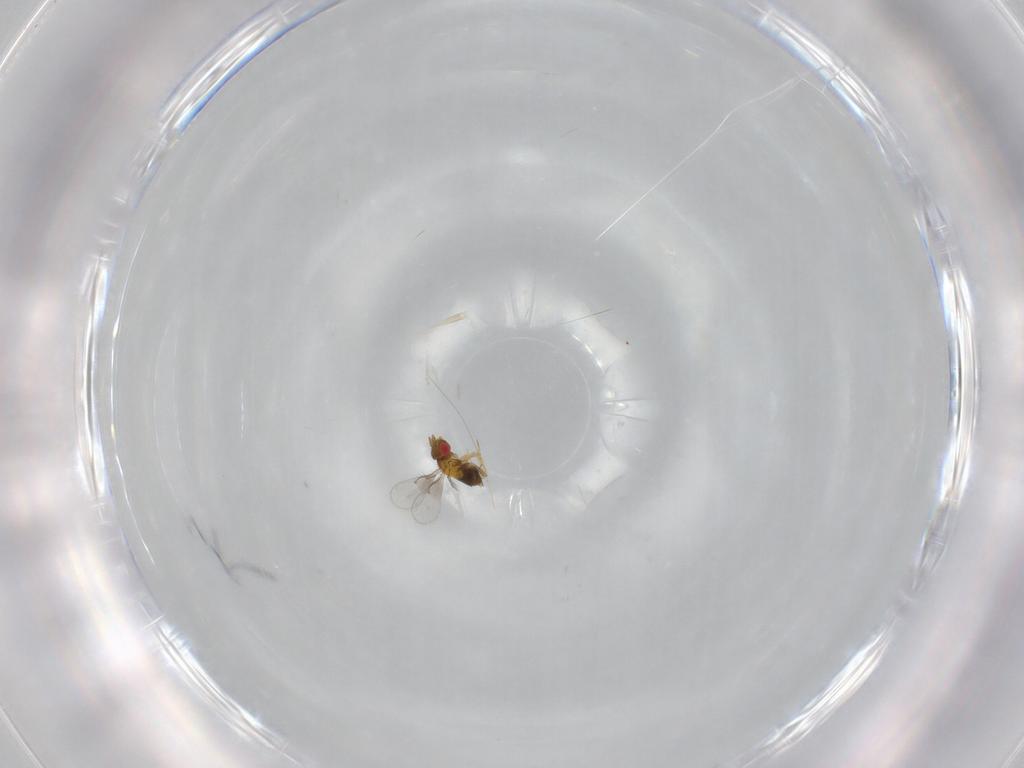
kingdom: Animalia
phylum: Arthropoda
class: Insecta
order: Hymenoptera
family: Trichogrammatidae
